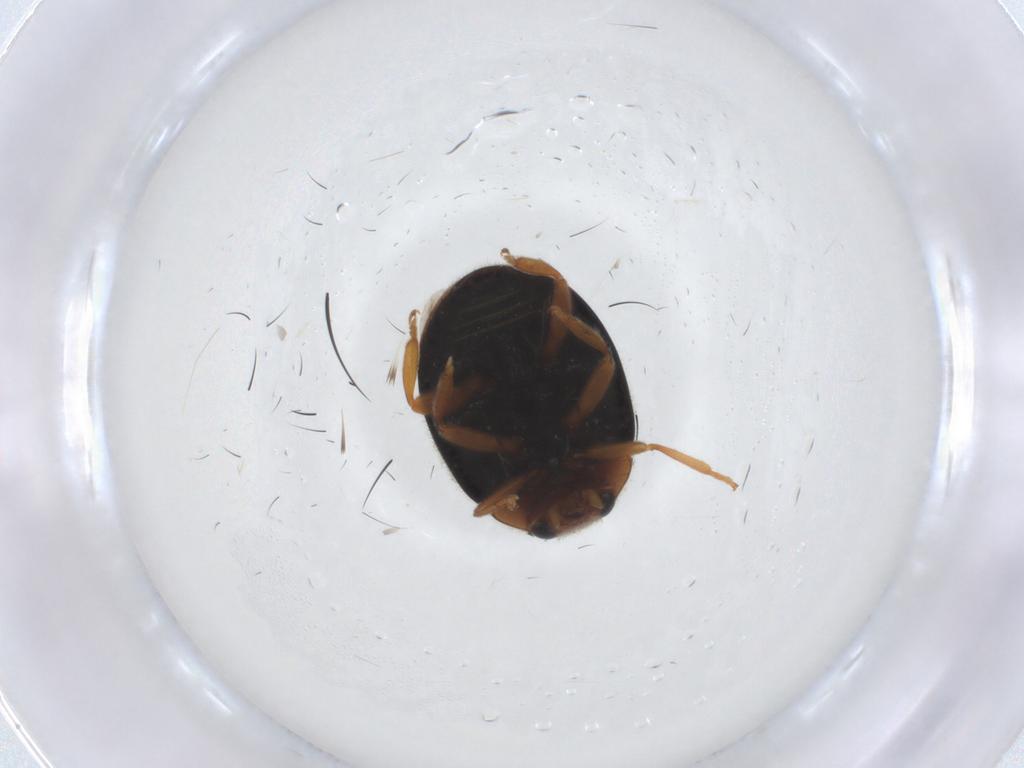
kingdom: Animalia
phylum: Arthropoda
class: Insecta
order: Coleoptera
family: Coccinellidae
